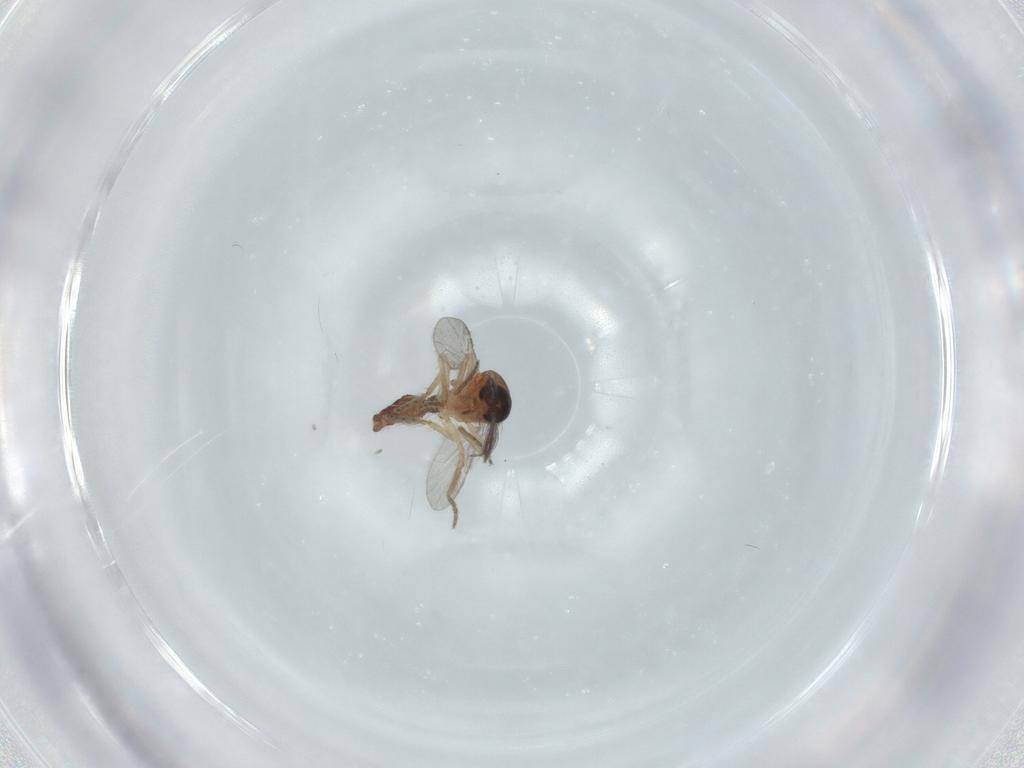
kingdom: Animalia
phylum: Arthropoda
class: Insecta
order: Diptera
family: Ceratopogonidae
